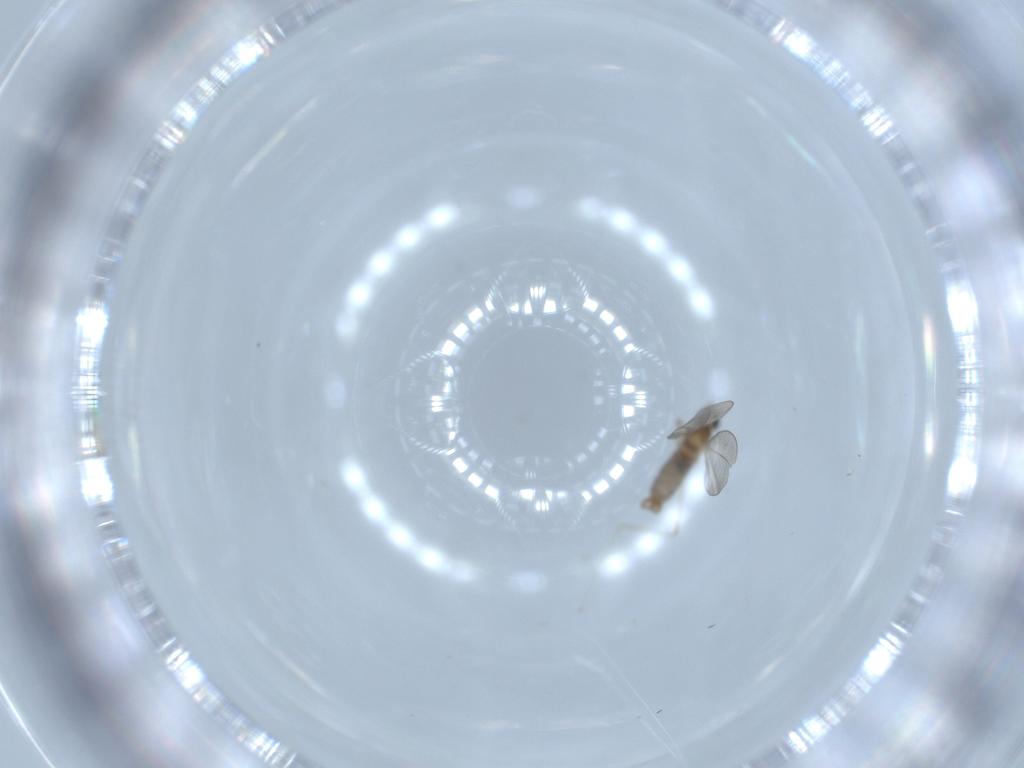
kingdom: Animalia
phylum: Arthropoda
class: Insecta
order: Diptera
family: Cecidomyiidae
